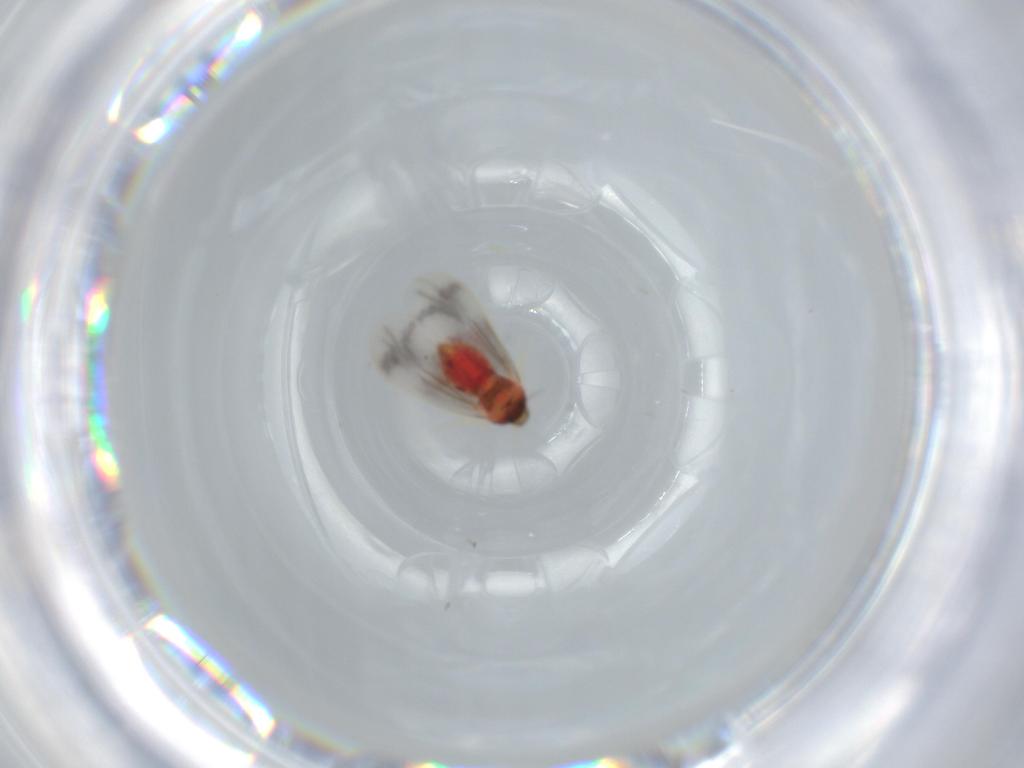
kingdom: Animalia
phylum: Arthropoda
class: Insecta
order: Hemiptera
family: Aleyrodidae
